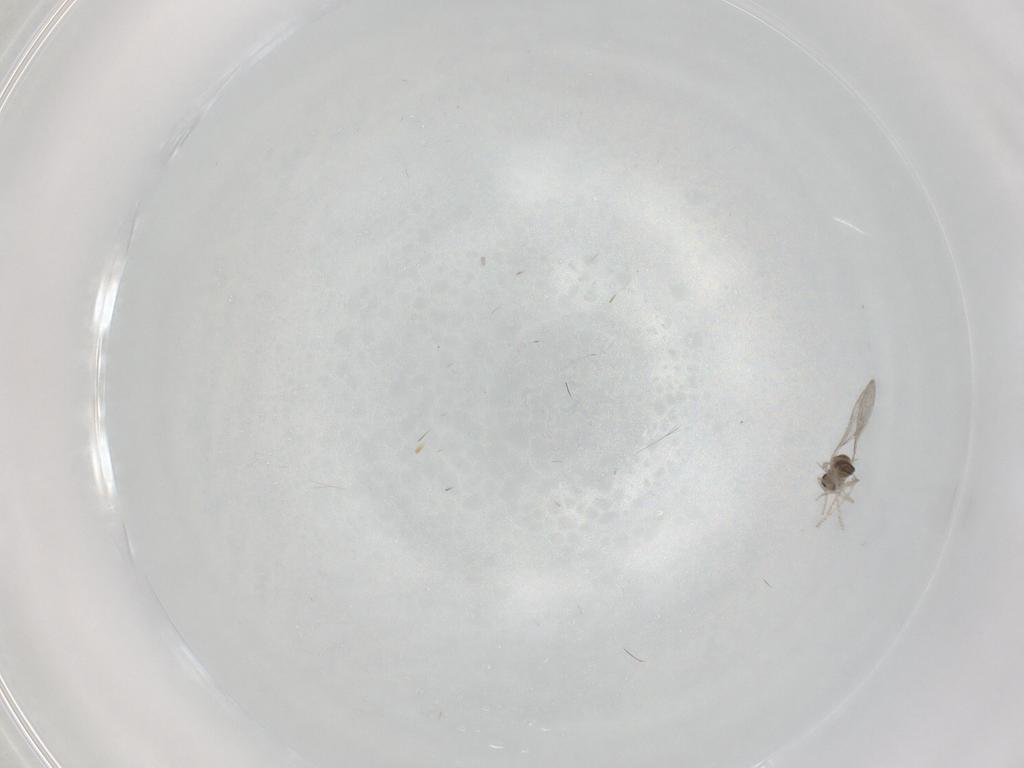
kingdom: Animalia
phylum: Arthropoda
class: Insecta
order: Diptera
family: Cecidomyiidae
